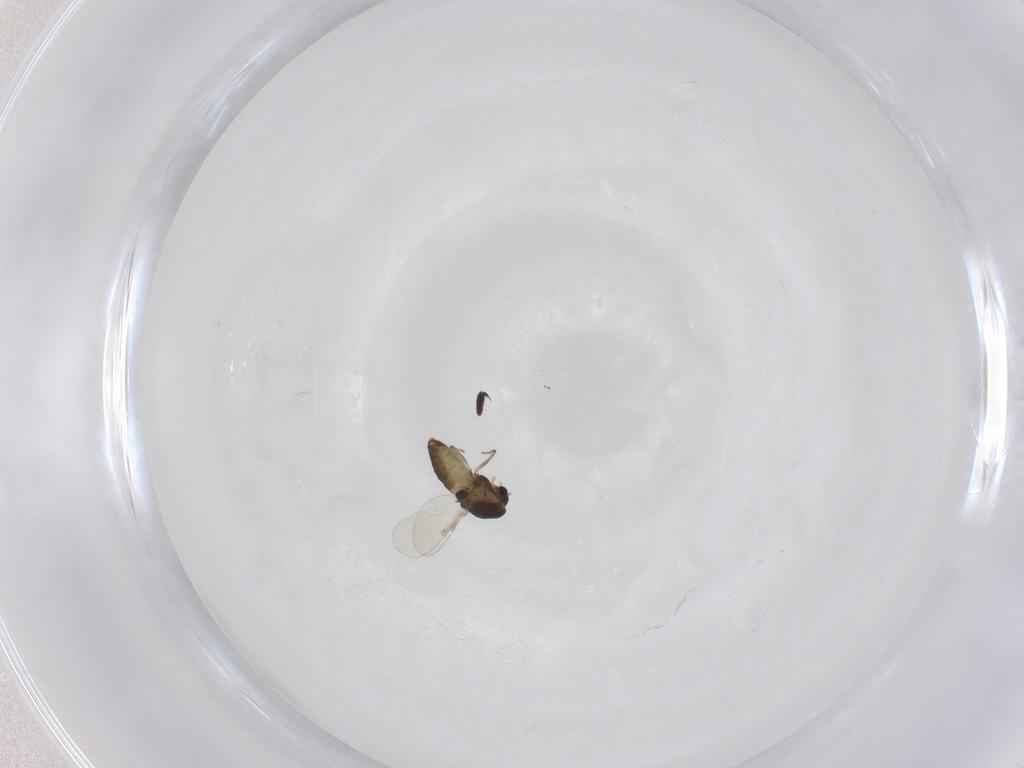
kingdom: Animalia
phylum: Arthropoda
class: Insecta
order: Diptera
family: Chironomidae
